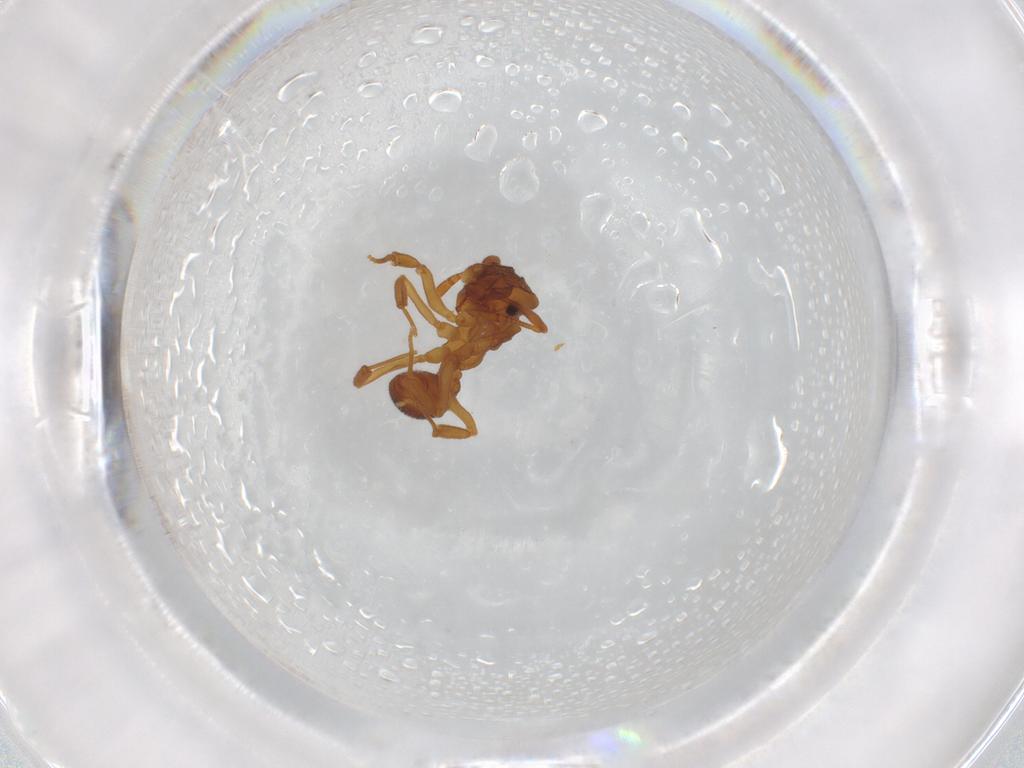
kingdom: Animalia
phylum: Arthropoda
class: Insecta
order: Hymenoptera
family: Formicidae
